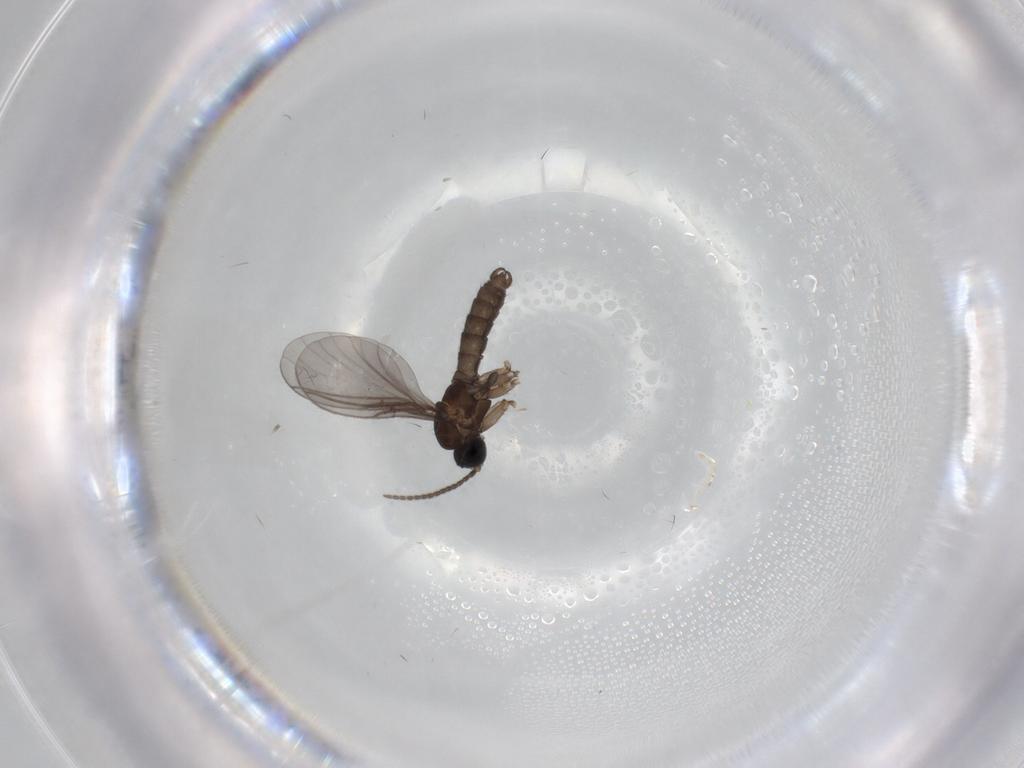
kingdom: Animalia
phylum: Arthropoda
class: Insecta
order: Diptera
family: Sciaridae
